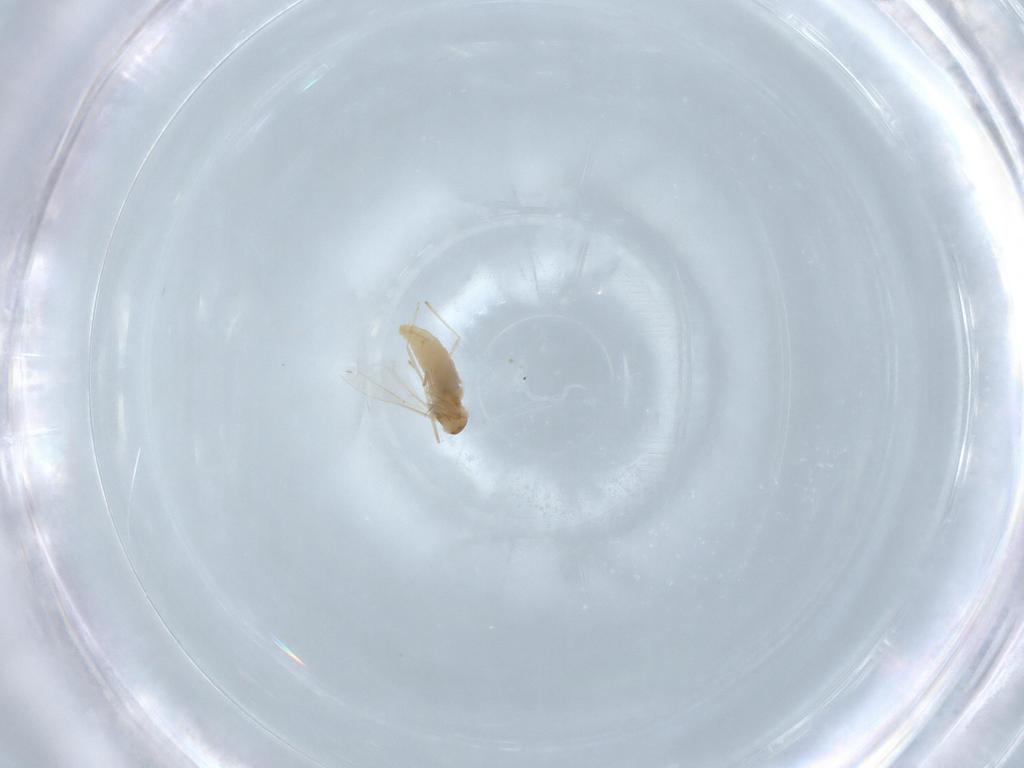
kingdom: Animalia
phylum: Arthropoda
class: Insecta
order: Diptera
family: Cecidomyiidae
